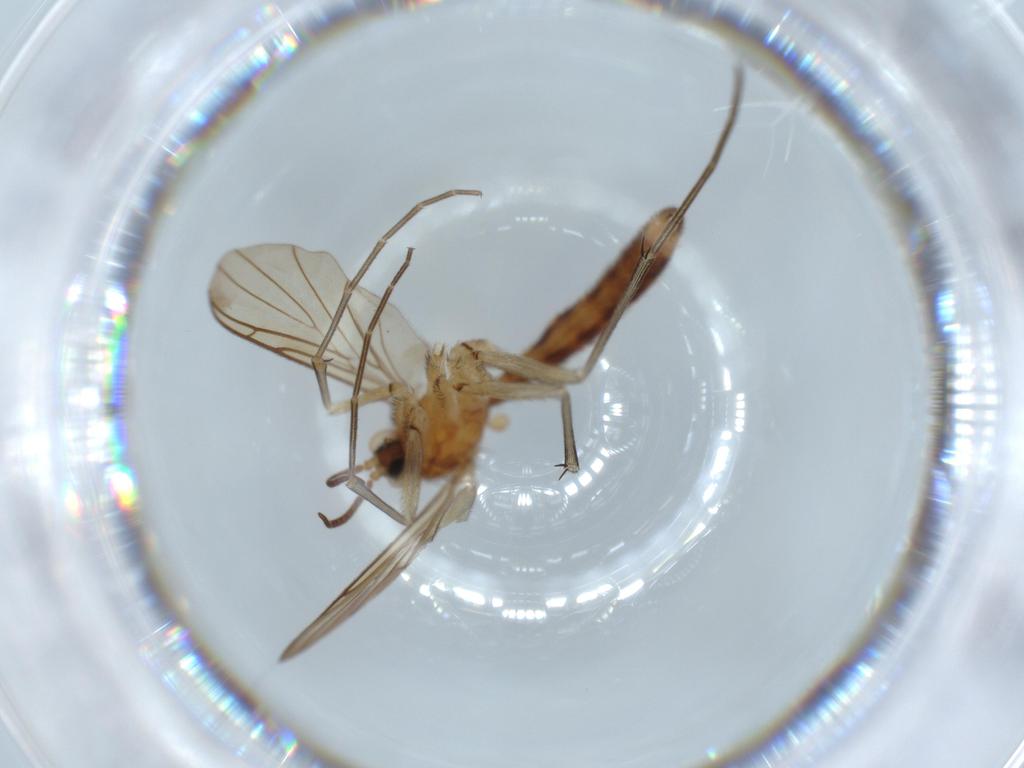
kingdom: Animalia
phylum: Arthropoda
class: Insecta
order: Diptera
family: Keroplatidae
